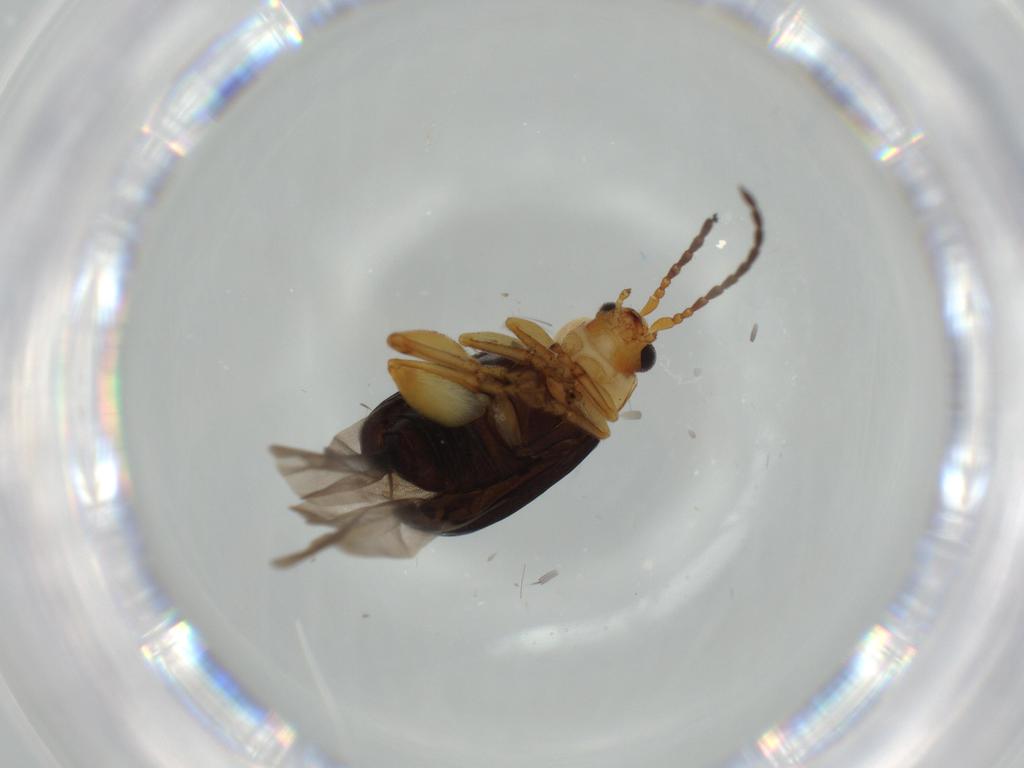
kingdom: Animalia
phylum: Arthropoda
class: Insecta
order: Coleoptera
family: Chrysomelidae
